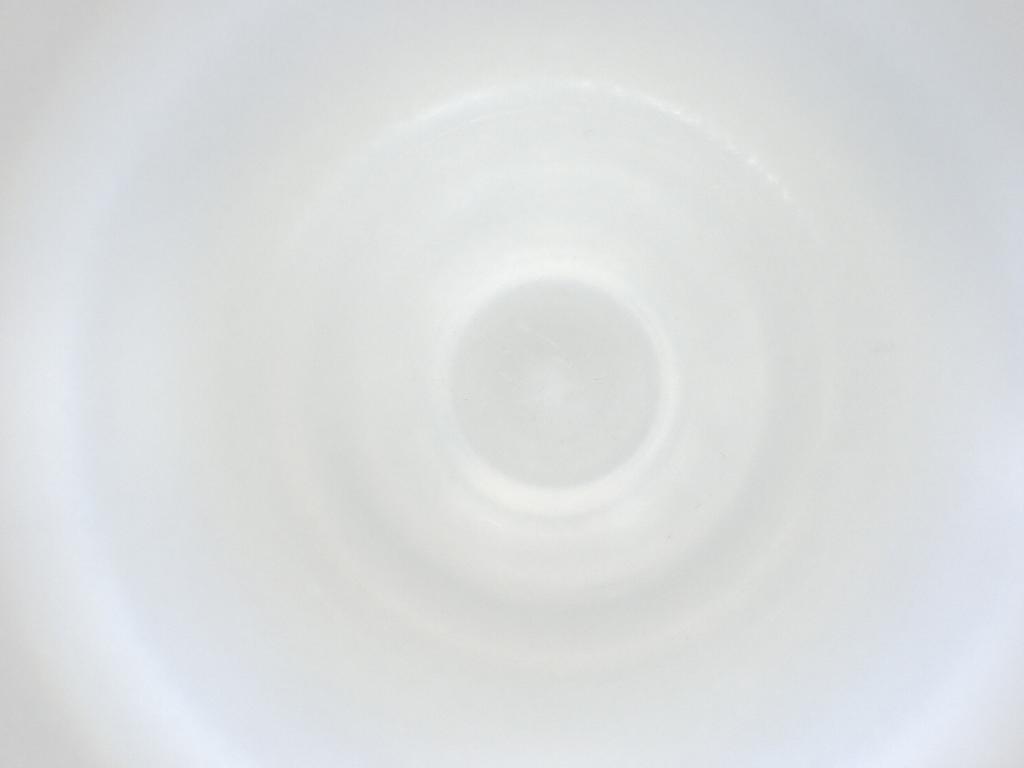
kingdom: Animalia
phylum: Arthropoda
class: Insecta
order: Diptera
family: Cecidomyiidae
